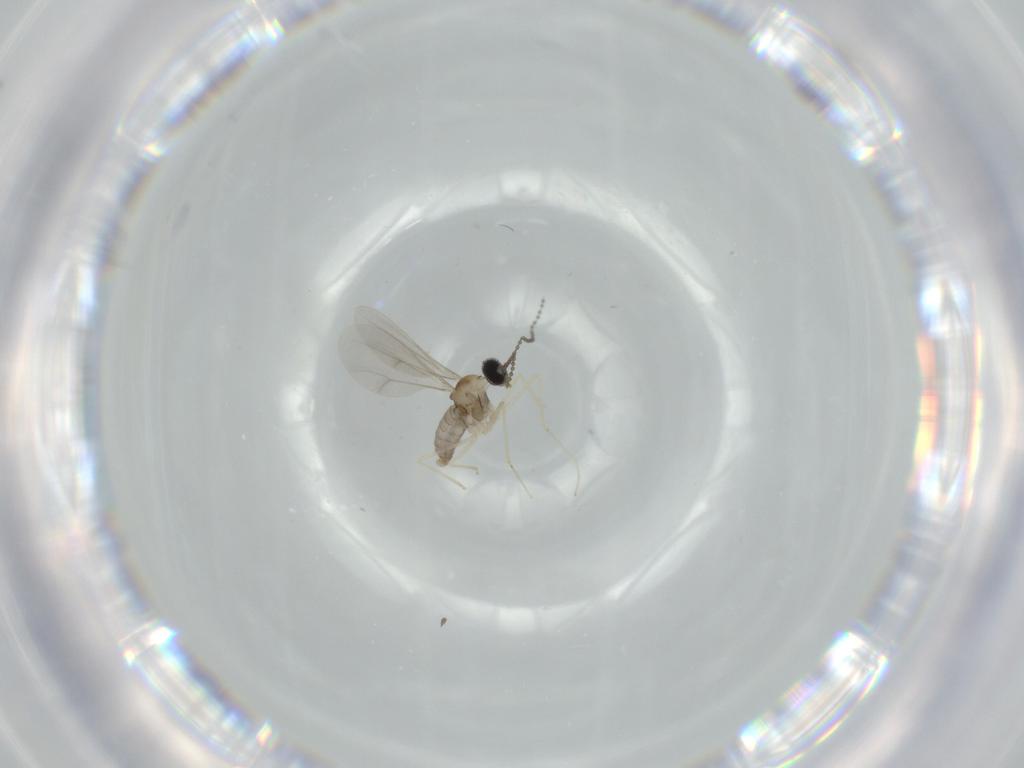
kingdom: Animalia
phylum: Arthropoda
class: Insecta
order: Diptera
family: Cecidomyiidae
